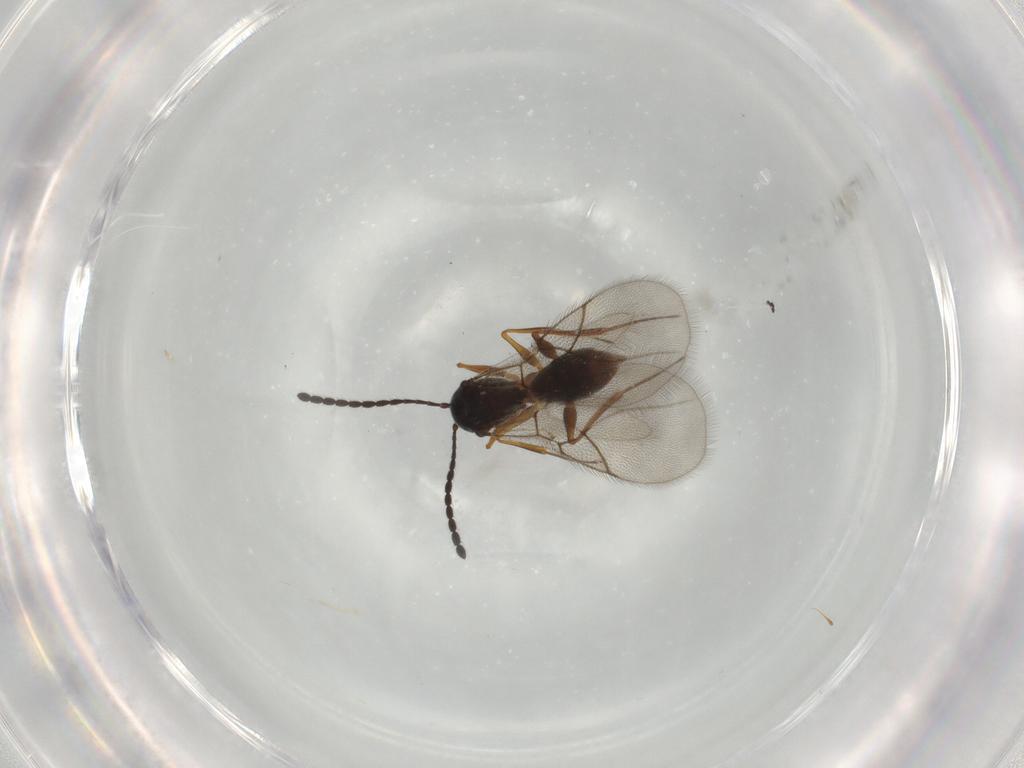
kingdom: Animalia
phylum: Arthropoda
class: Insecta
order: Hymenoptera
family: Figitidae
